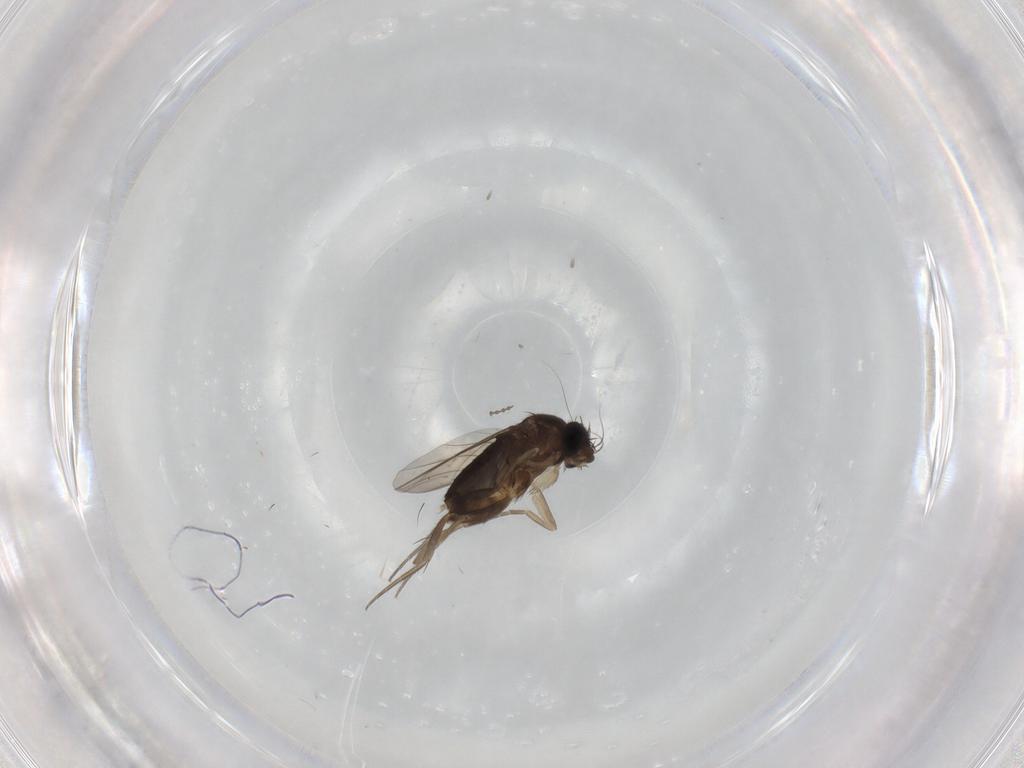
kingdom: Animalia
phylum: Arthropoda
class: Insecta
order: Diptera
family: Phoridae
